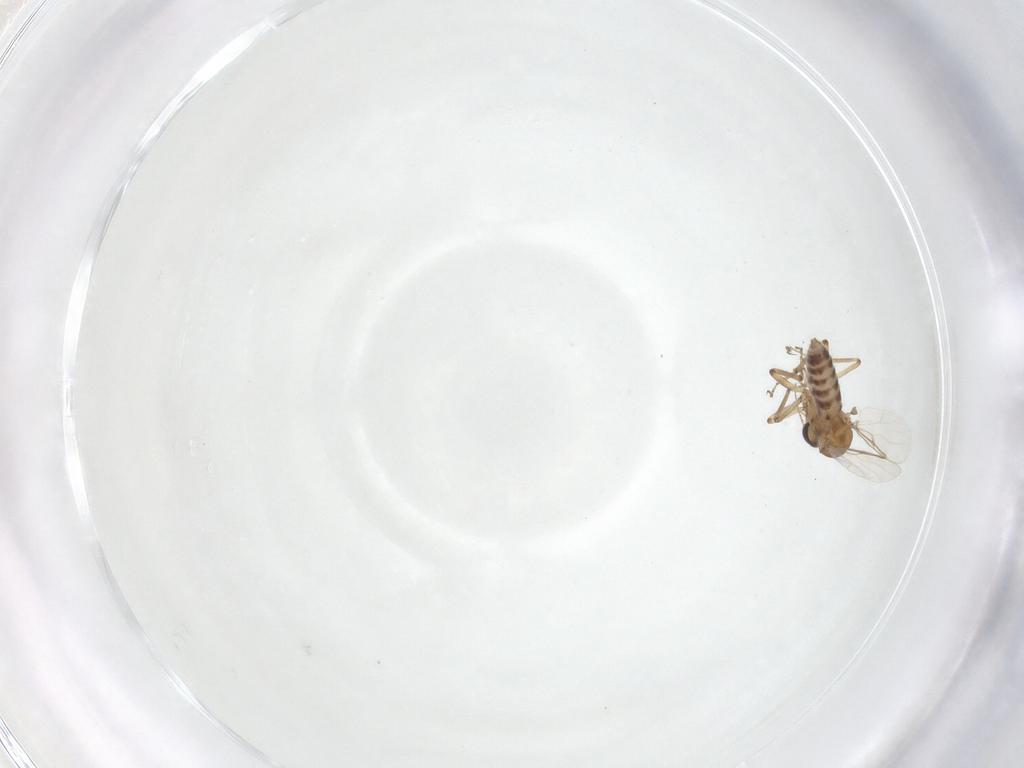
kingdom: Animalia
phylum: Arthropoda
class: Insecta
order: Diptera
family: Ceratopogonidae
